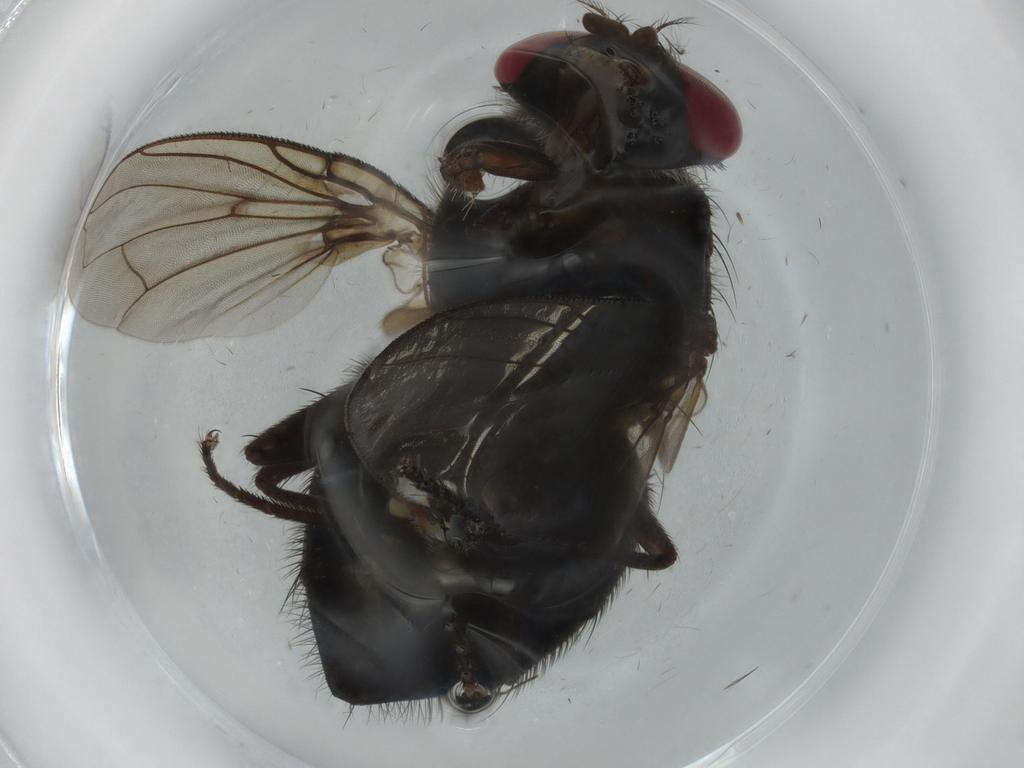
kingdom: Animalia
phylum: Arthropoda
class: Insecta
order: Diptera
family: Calliphoridae
